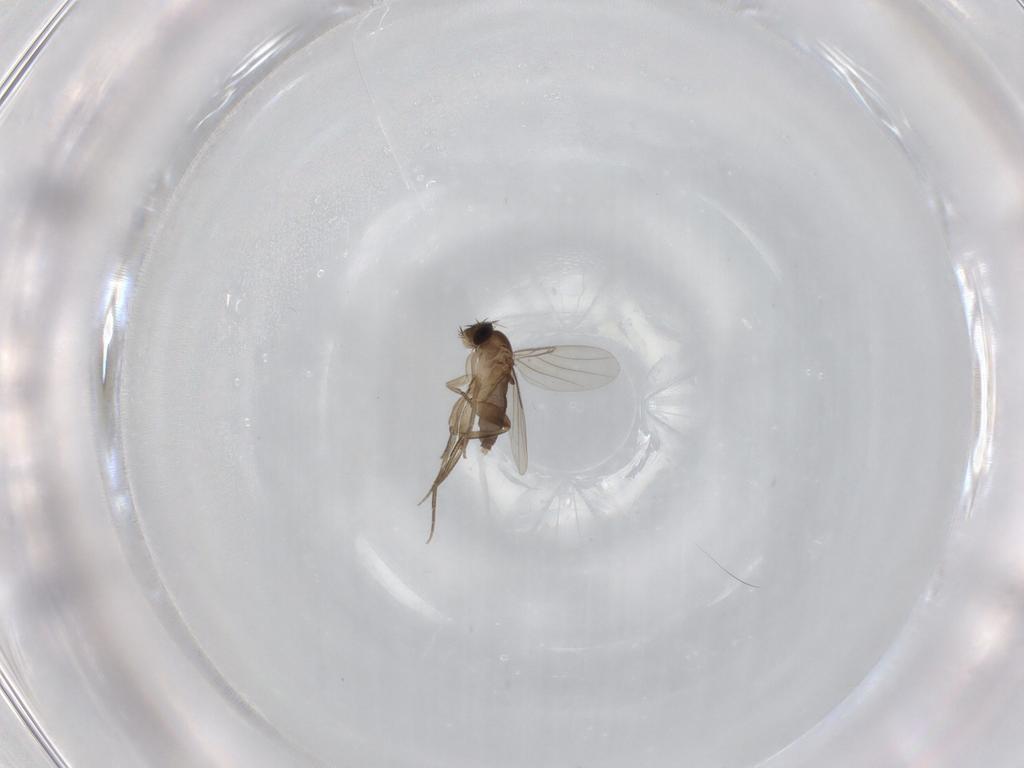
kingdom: Animalia
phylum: Arthropoda
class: Insecta
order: Diptera
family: Phoridae
